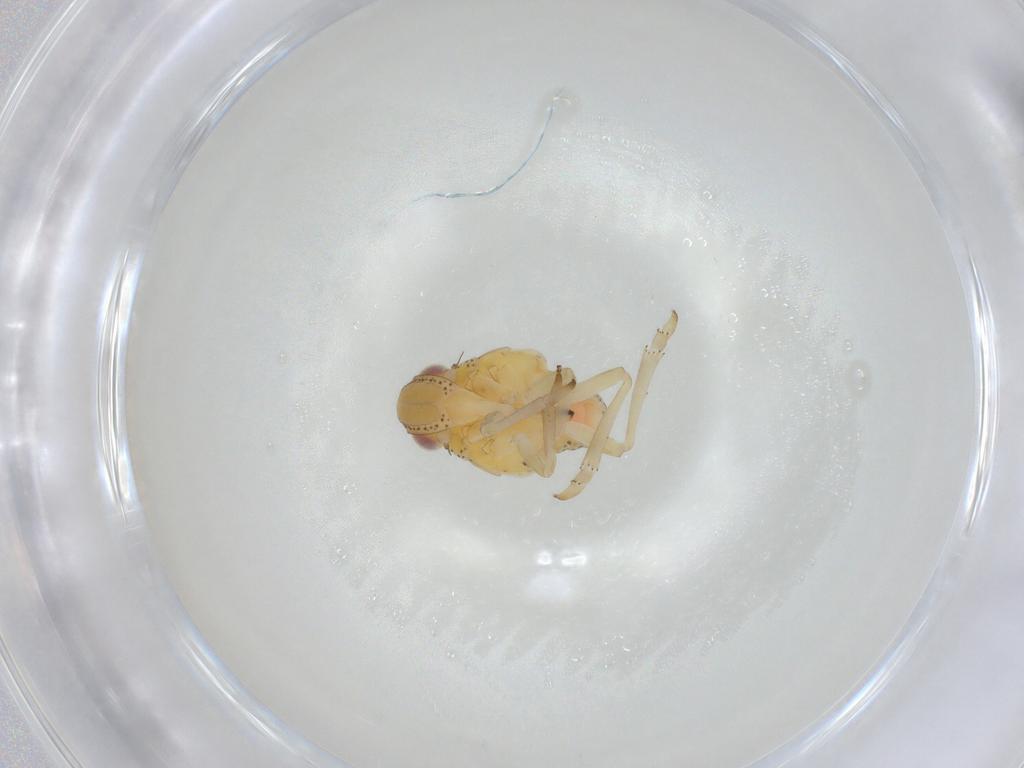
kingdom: Animalia
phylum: Arthropoda
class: Insecta
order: Hemiptera
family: Tropiduchidae
